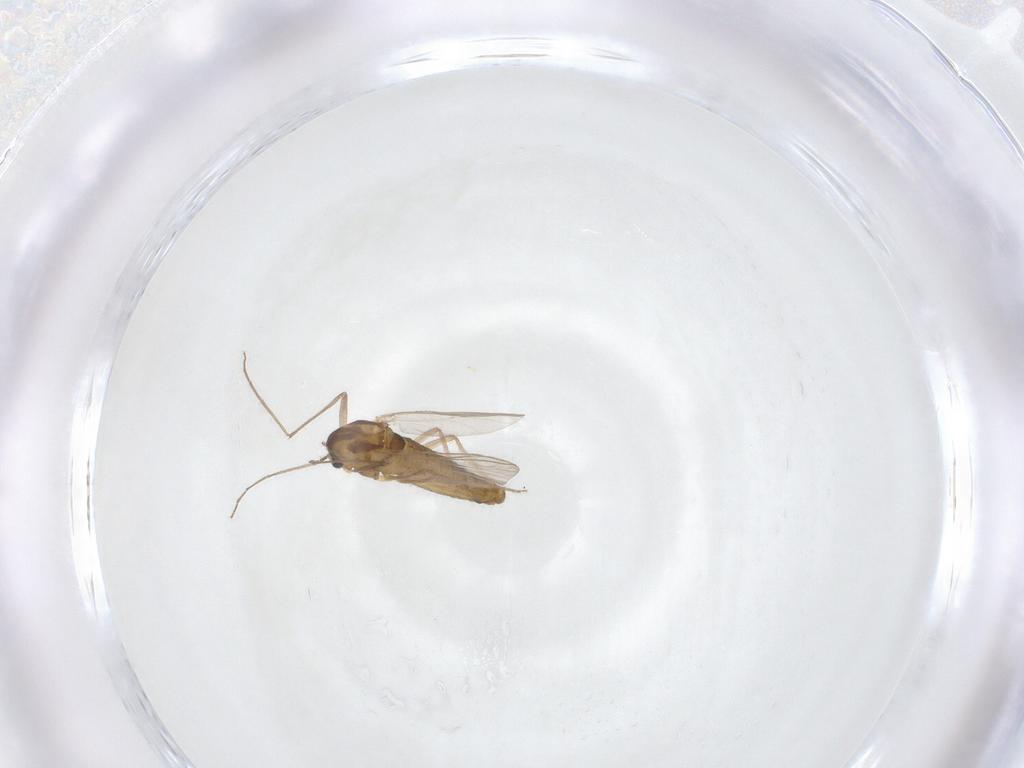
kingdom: Animalia
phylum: Arthropoda
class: Insecta
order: Diptera
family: Chironomidae
